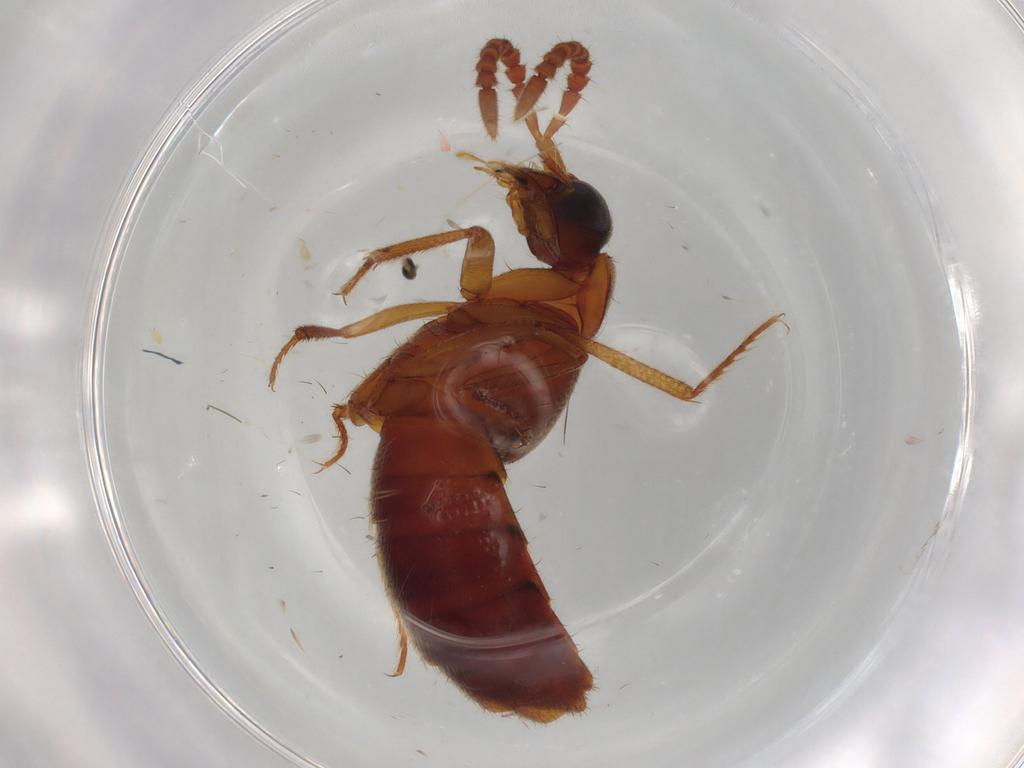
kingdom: Animalia
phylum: Arthropoda
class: Insecta
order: Coleoptera
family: Anthicidae
